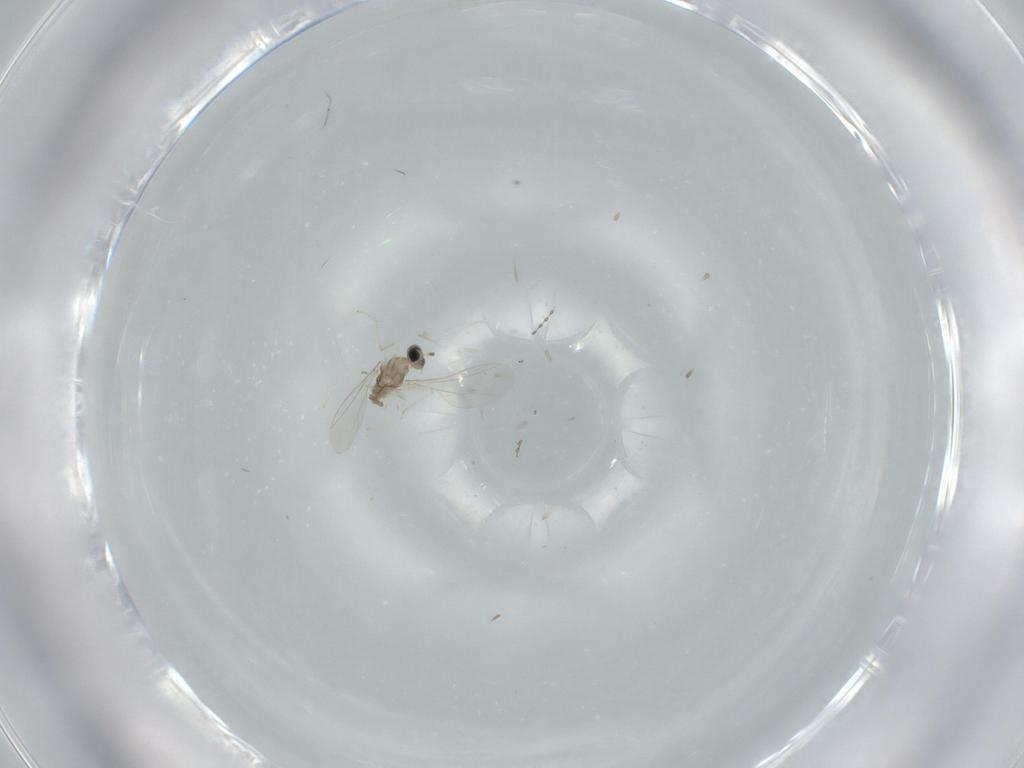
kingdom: Animalia
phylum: Arthropoda
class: Insecta
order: Diptera
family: Cecidomyiidae
